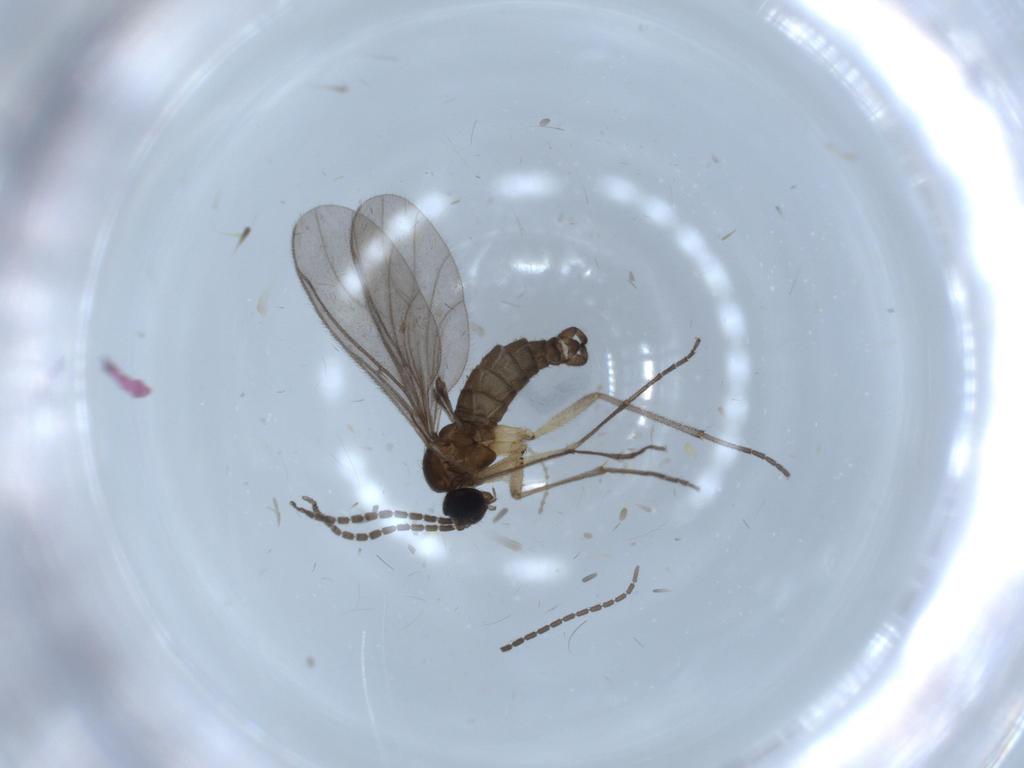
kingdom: Animalia
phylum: Arthropoda
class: Insecta
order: Diptera
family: Sciaridae
